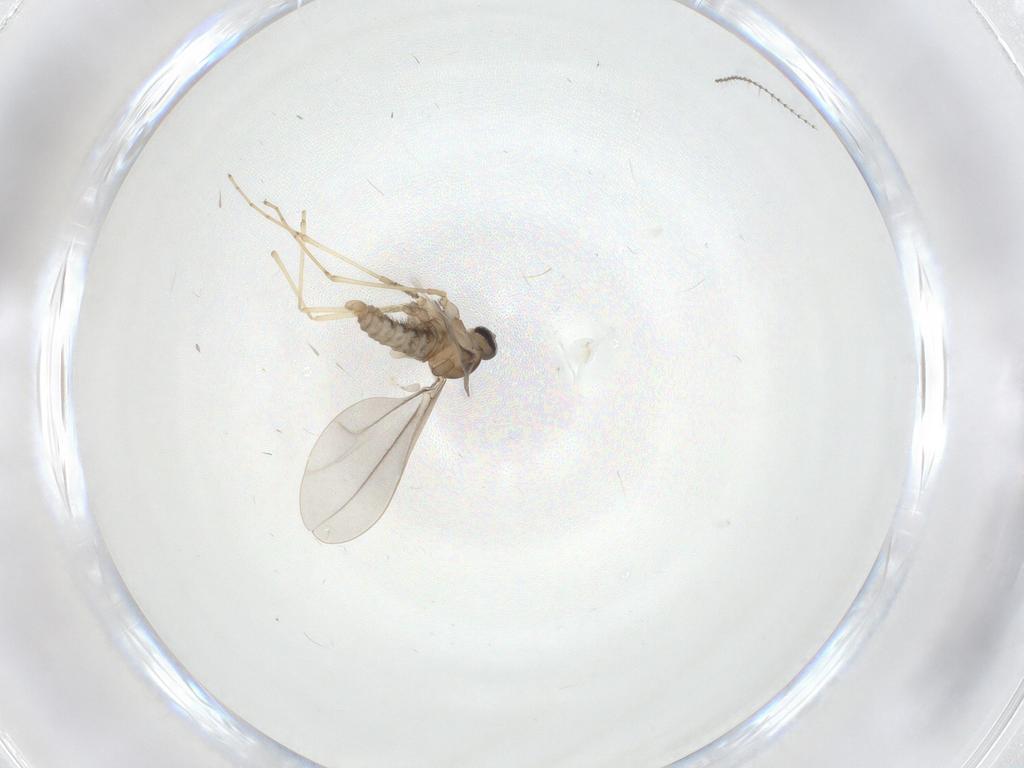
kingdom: Animalia
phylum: Arthropoda
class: Insecta
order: Diptera
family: Cecidomyiidae
